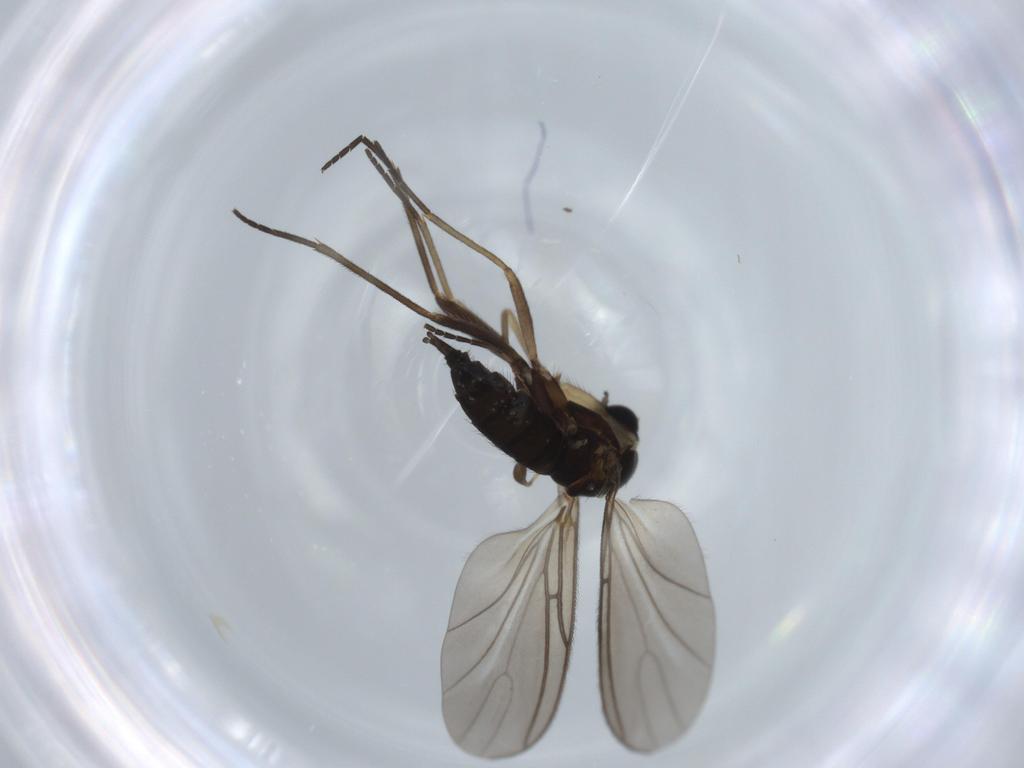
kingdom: Animalia
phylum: Arthropoda
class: Insecta
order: Diptera
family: Sciaridae
